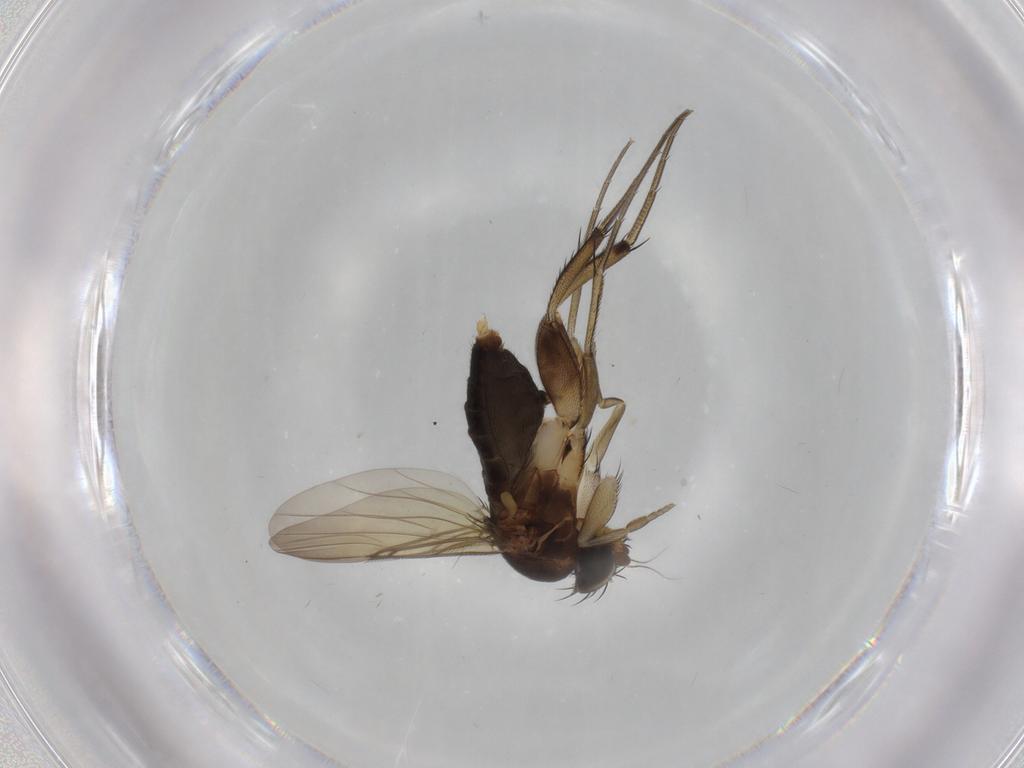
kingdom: Animalia
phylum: Arthropoda
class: Insecta
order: Diptera
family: Phoridae
